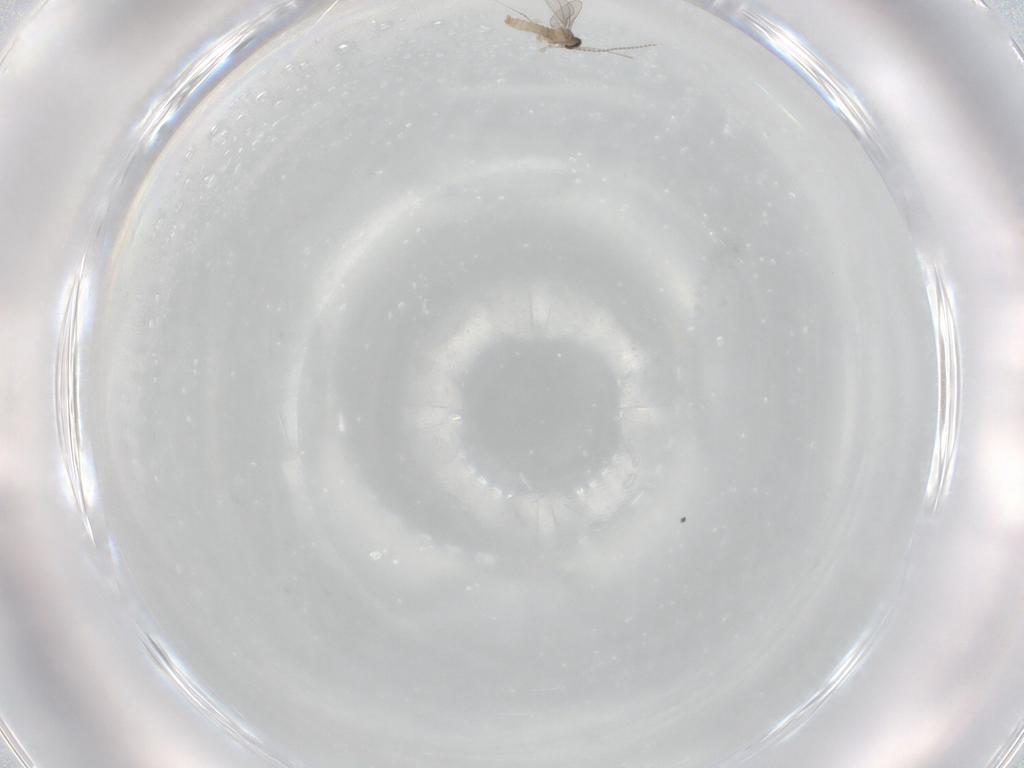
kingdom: Animalia
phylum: Arthropoda
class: Insecta
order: Diptera
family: Cecidomyiidae
